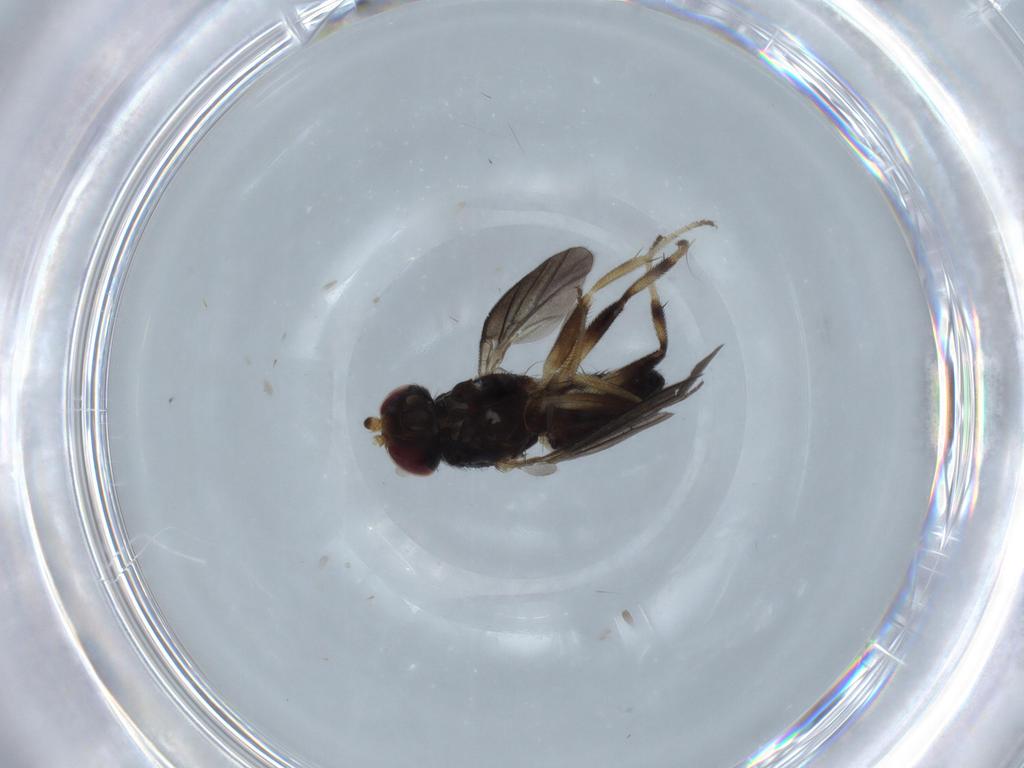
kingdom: Animalia
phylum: Arthropoda
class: Insecta
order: Diptera
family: Agromyzidae
